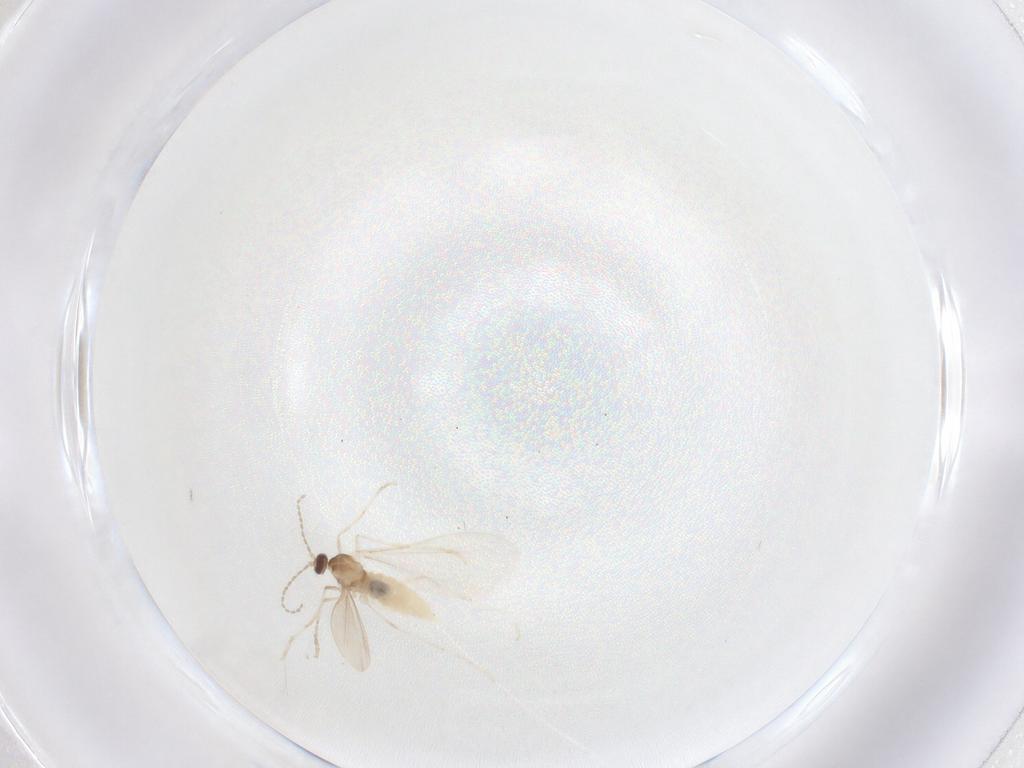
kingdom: Animalia
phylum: Arthropoda
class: Insecta
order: Diptera
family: Cecidomyiidae
